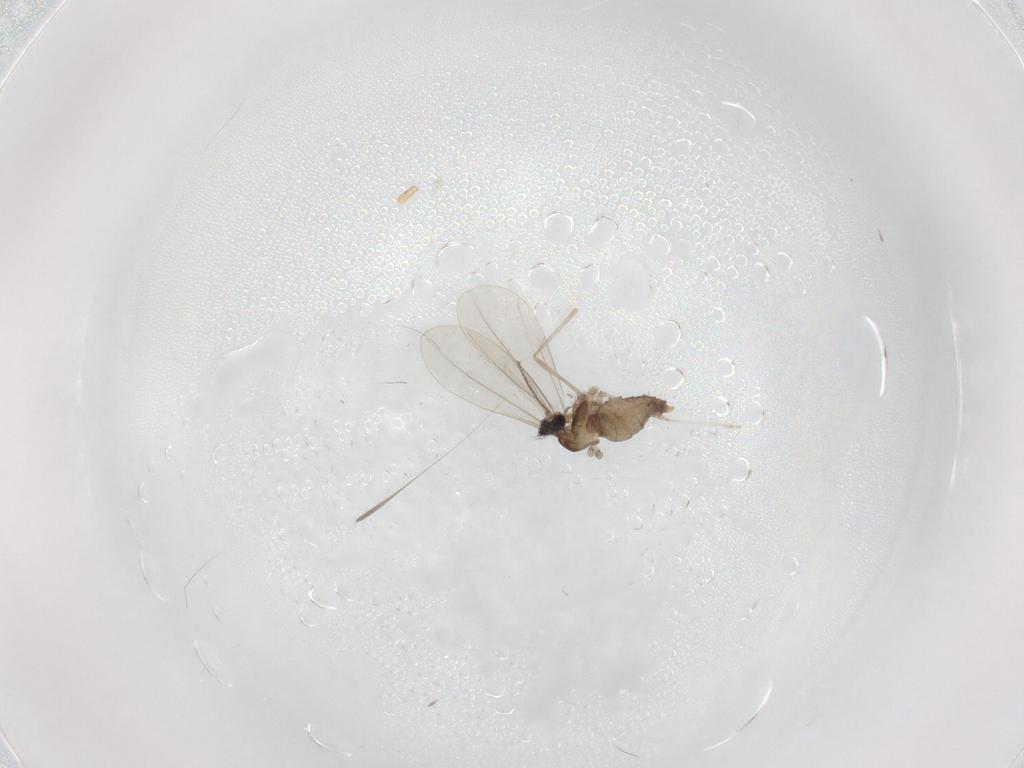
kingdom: Animalia
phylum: Arthropoda
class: Insecta
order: Diptera
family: Cecidomyiidae
